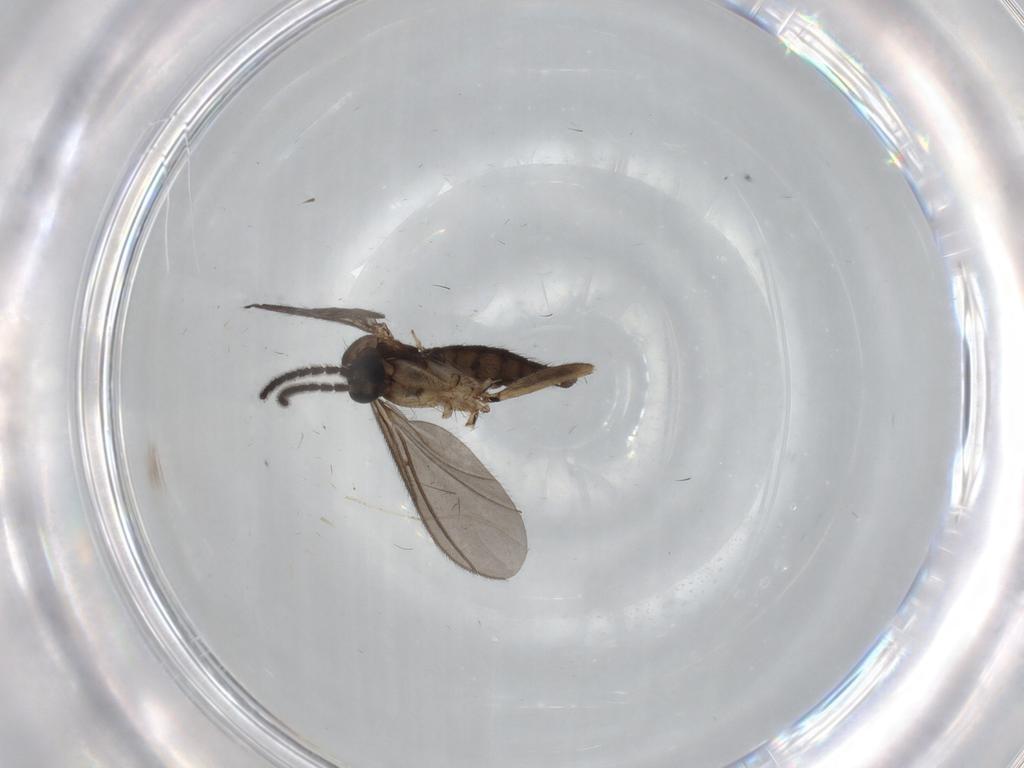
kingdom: Animalia
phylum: Arthropoda
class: Insecta
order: Diptera
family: Sciaridae
